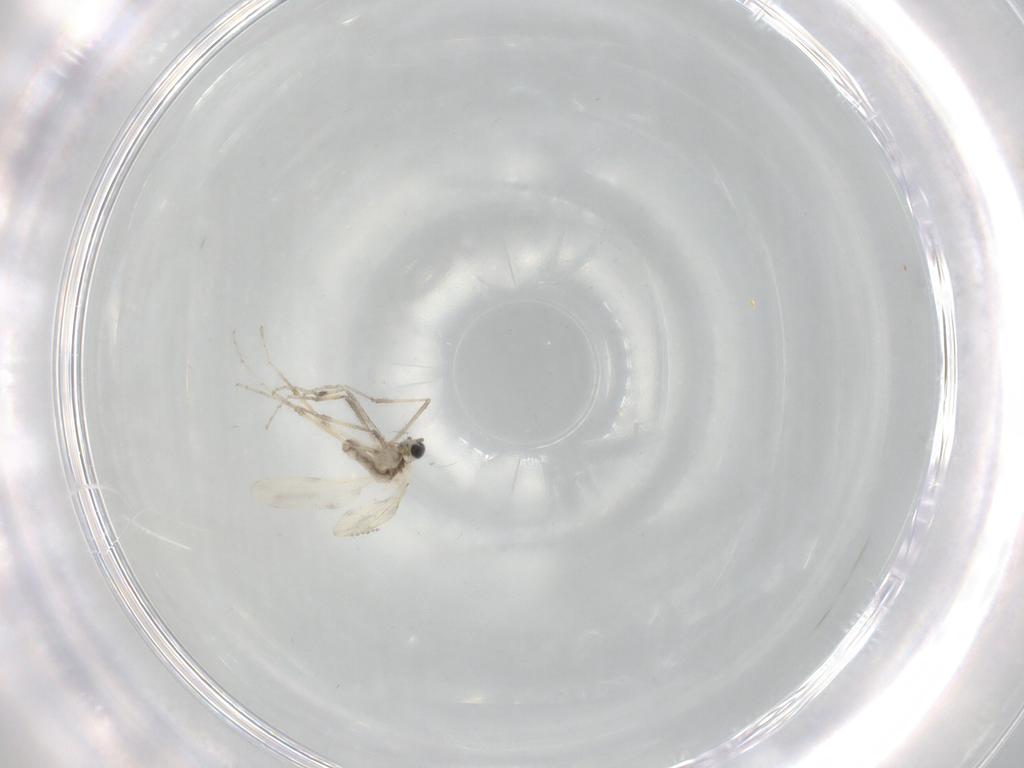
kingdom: Animalia
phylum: Arthropoda
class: Insecta
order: Diptera
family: Cecidomyiidae
